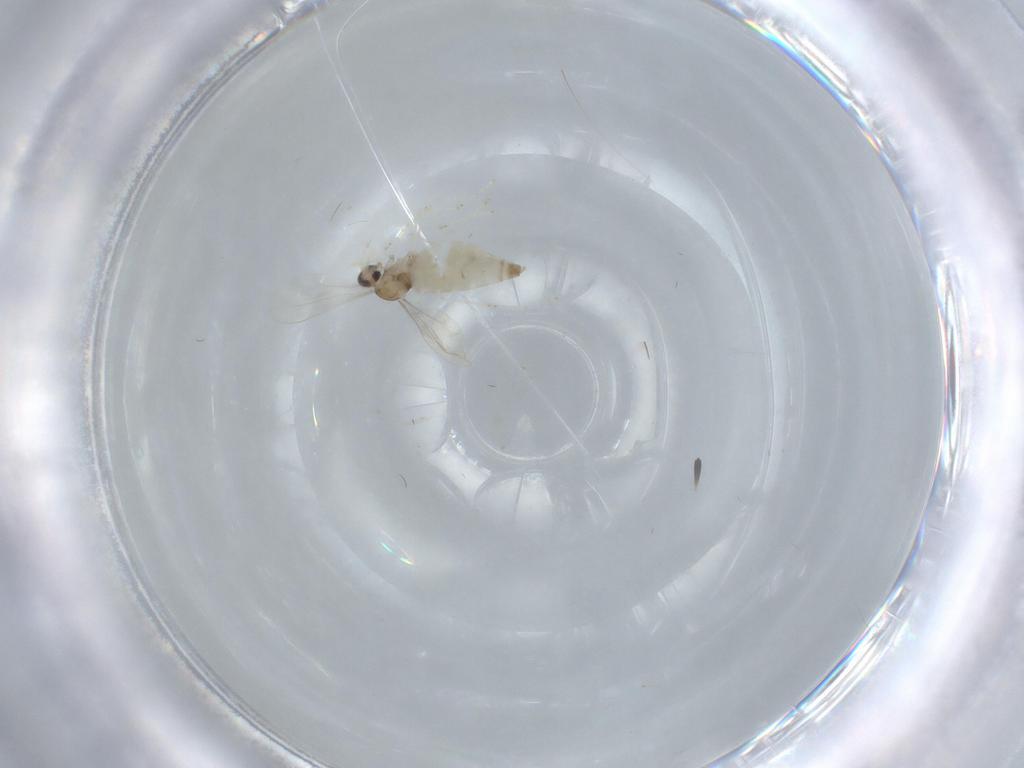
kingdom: Animalia
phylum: Arthropoda
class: Insecta
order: Diptera
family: Cecidomyiidae
